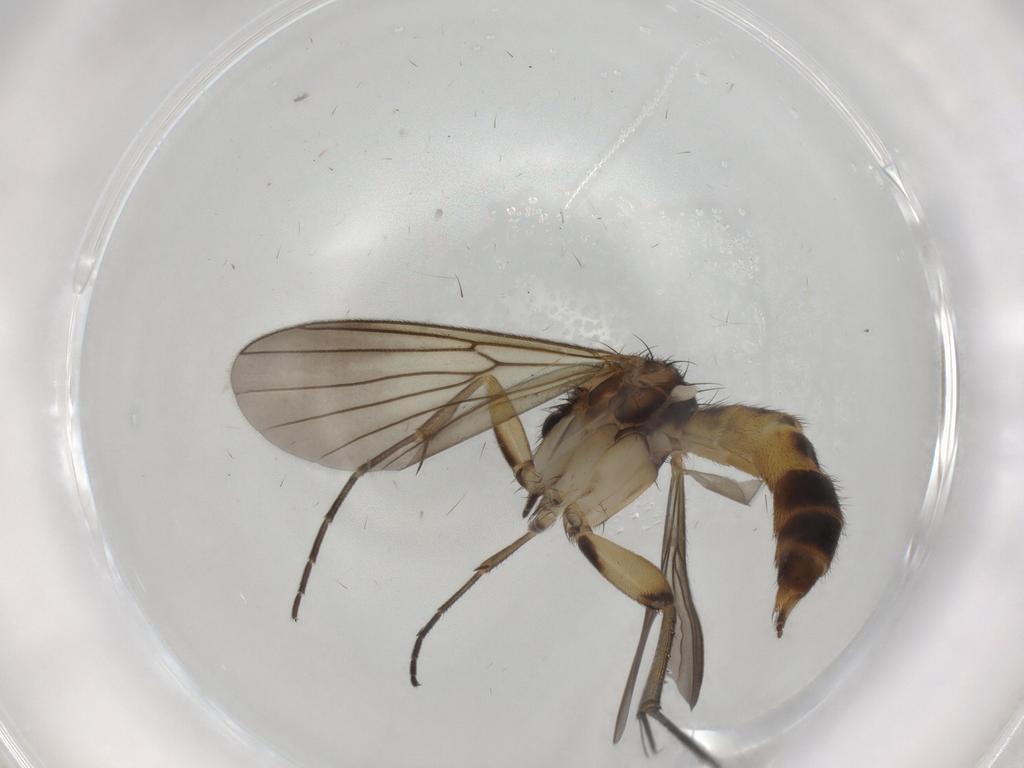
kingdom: Animalia
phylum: Arthropoda
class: Insecta
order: Diptera
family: Mycetophilidae
